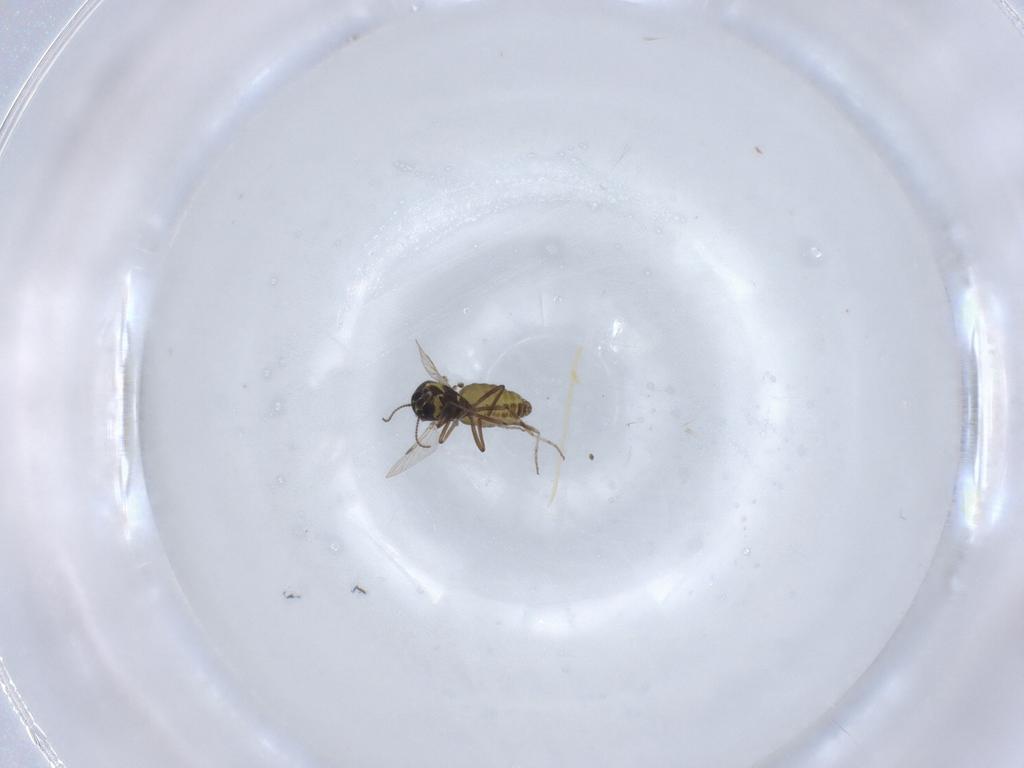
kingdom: Animalia
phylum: Arthropoda
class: Insecta
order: Diptera
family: Ceratopogonidae
